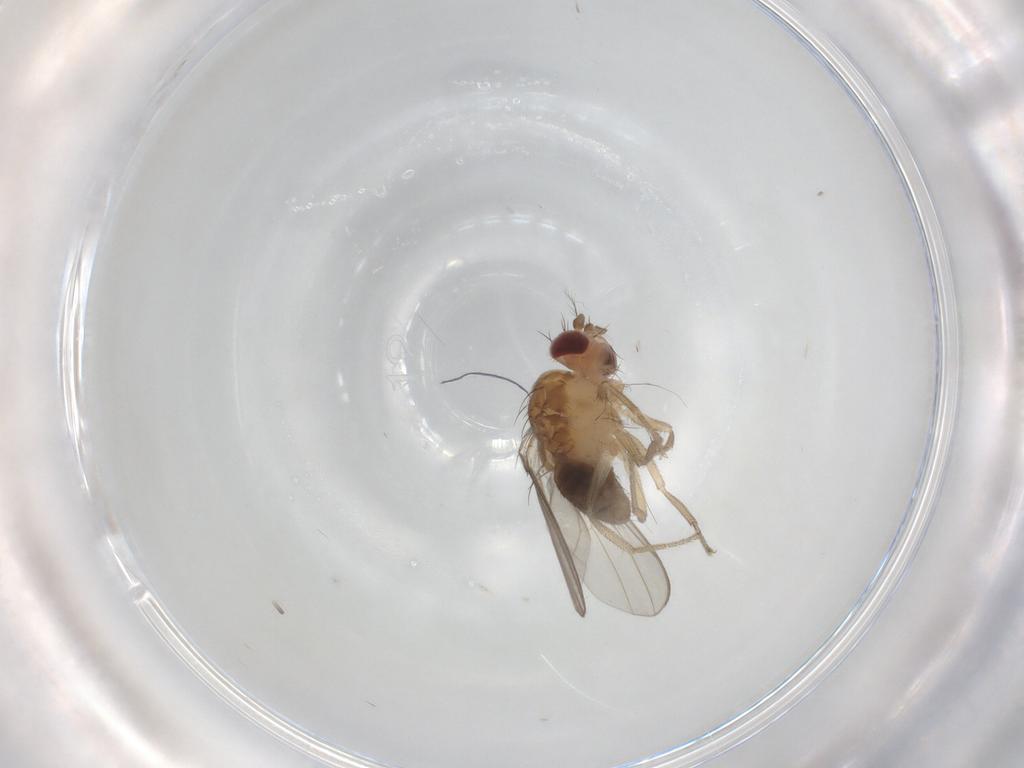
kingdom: Animalia
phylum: Arthropoda
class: Insecta
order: Diptera
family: Drosophilidae
